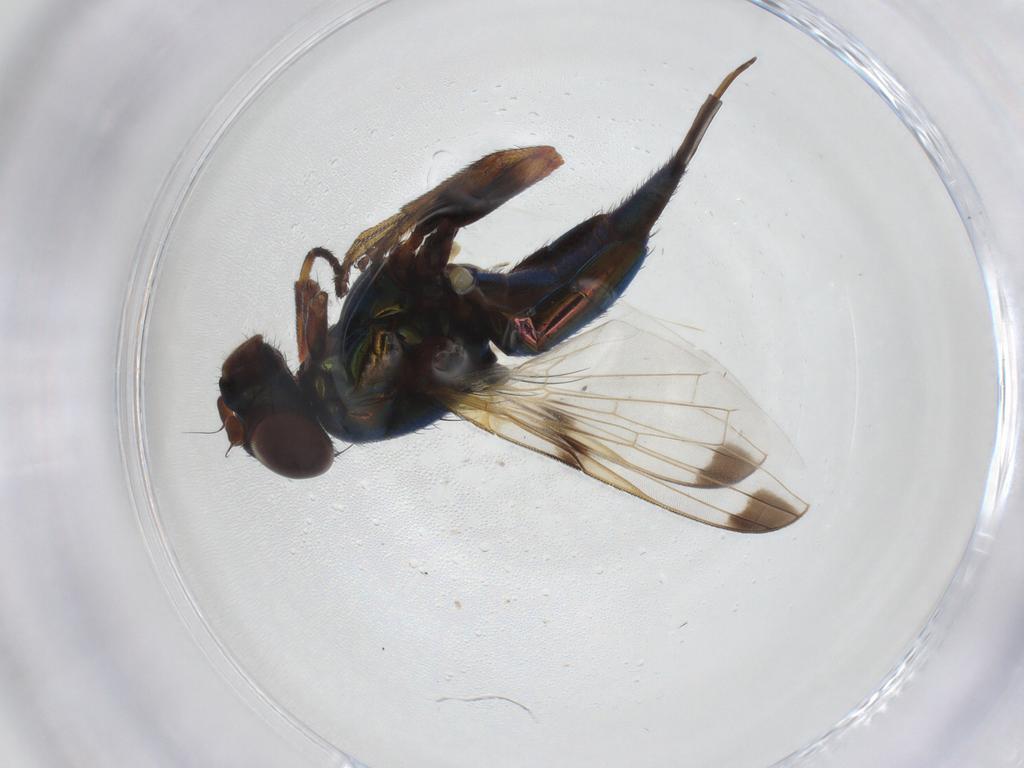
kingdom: Animalia
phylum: Arthropoda
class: Insecta
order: Diptera
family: Ulidiidae
